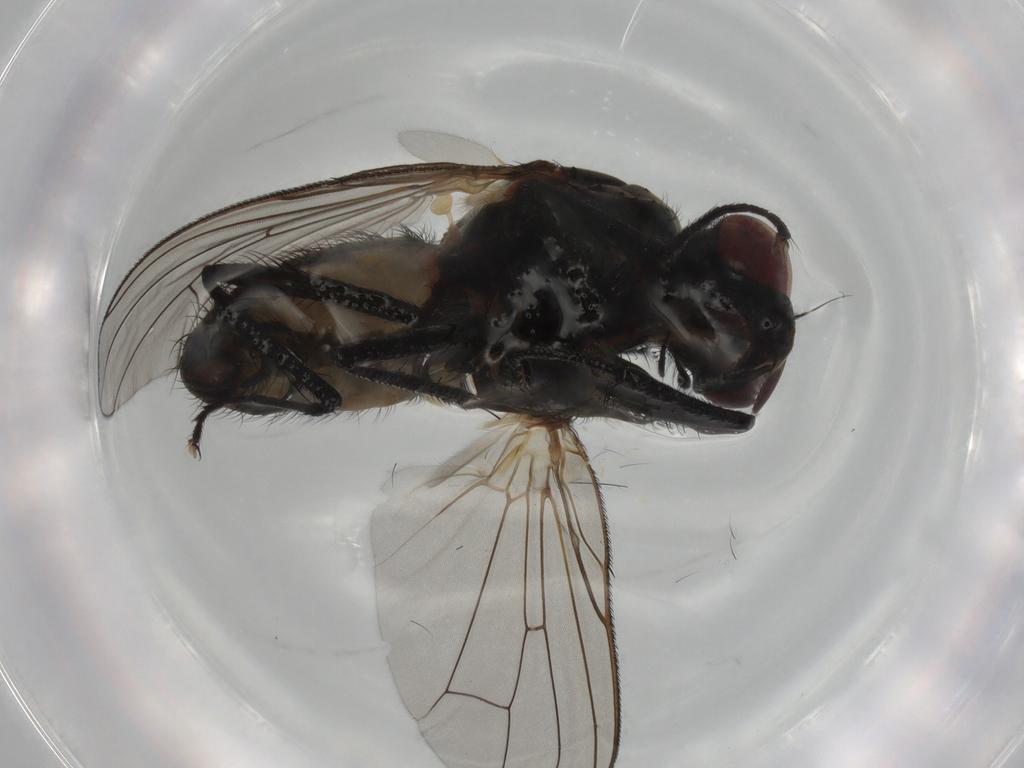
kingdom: Animalia
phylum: Arthropoda
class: Insecta
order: Diptera
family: Anthomyiidae
